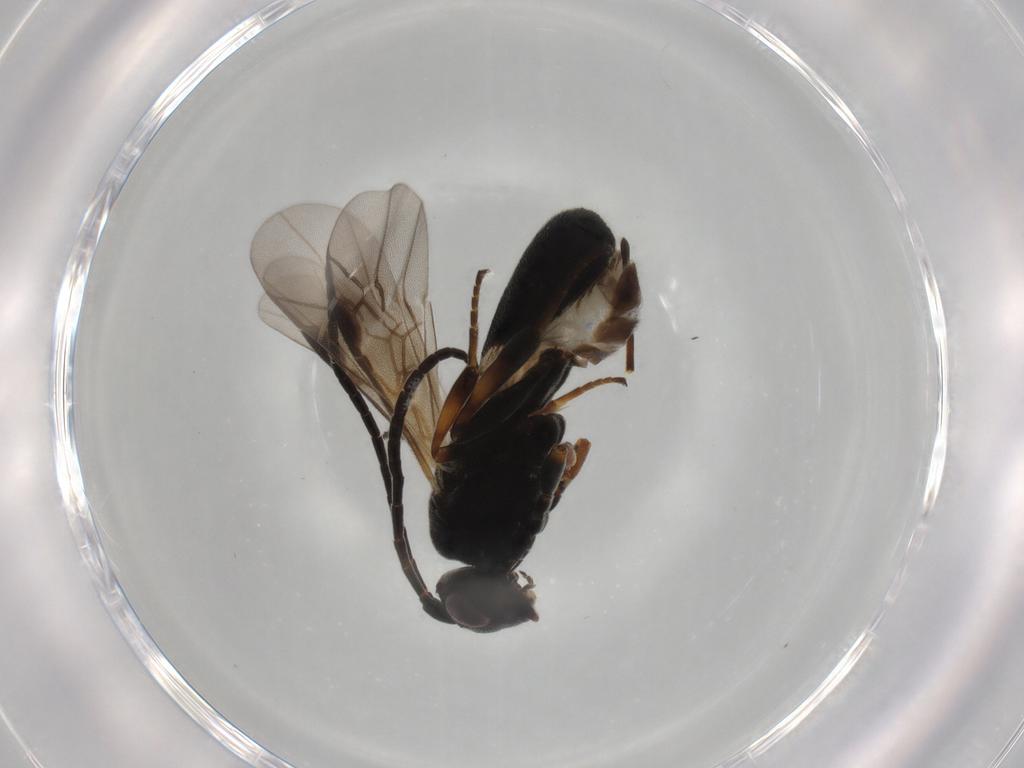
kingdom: Animalia
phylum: Arthropoda
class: Insecta
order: Hymenoptera
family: Braconidae
